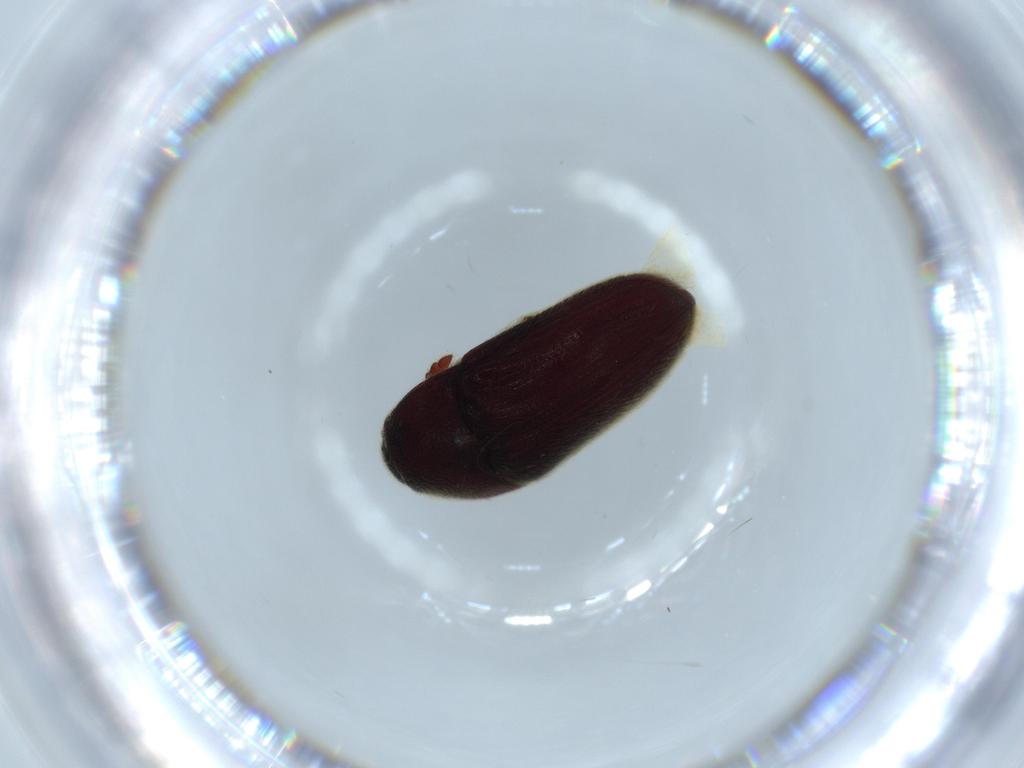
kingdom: Animalia
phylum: Arthropoda
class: Insecta
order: Coleoptera
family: Throscidae
